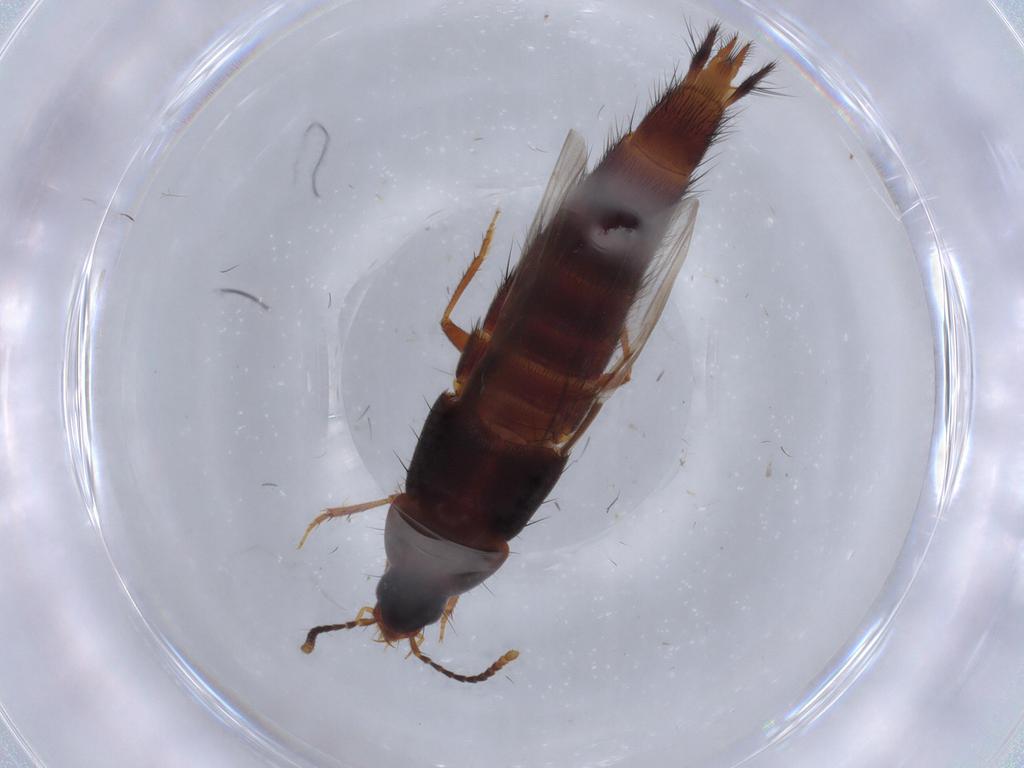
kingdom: Animalia
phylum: Arthropoda
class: Insecta
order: Coleoptera
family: Staphylinidae
